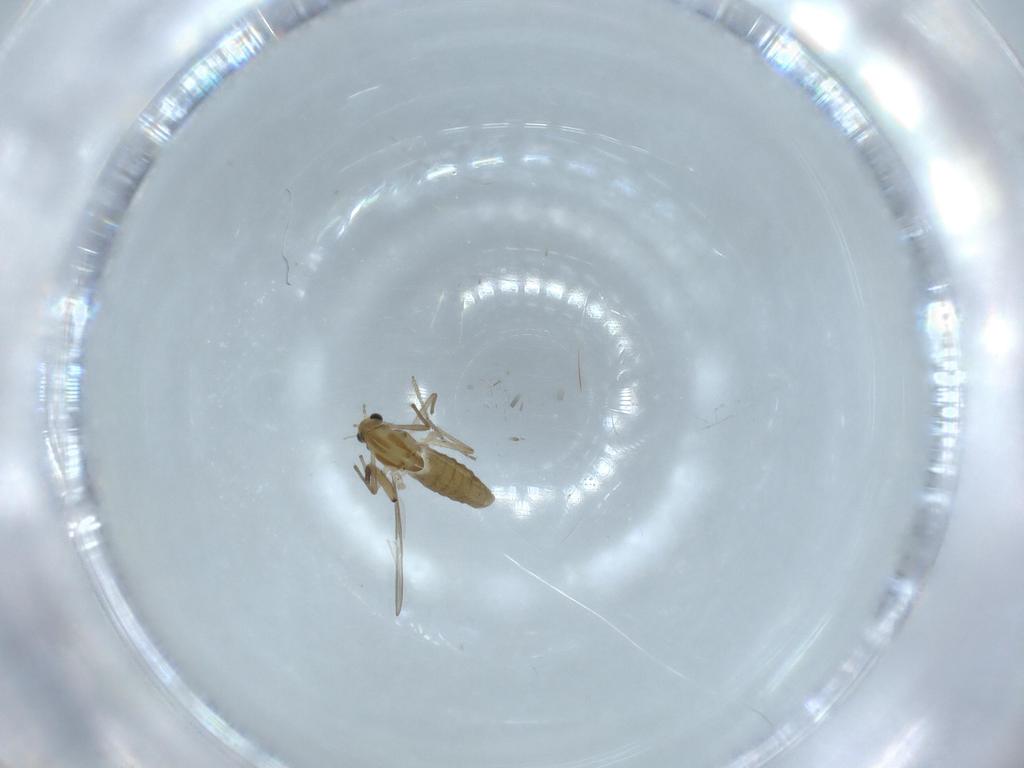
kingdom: Animalia
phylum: Arthropoda
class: Insecta
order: Diptera
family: Chironomidae
